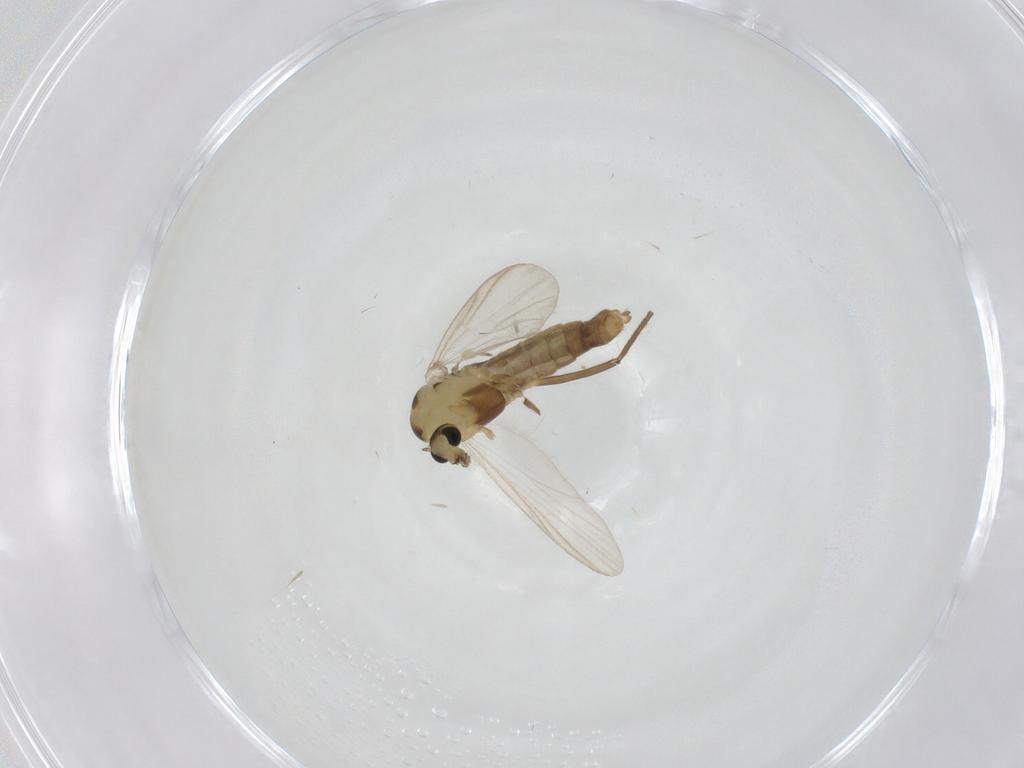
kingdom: Animalia
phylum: Arthropoda
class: Insecta
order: Diptera
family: Chironomidae
